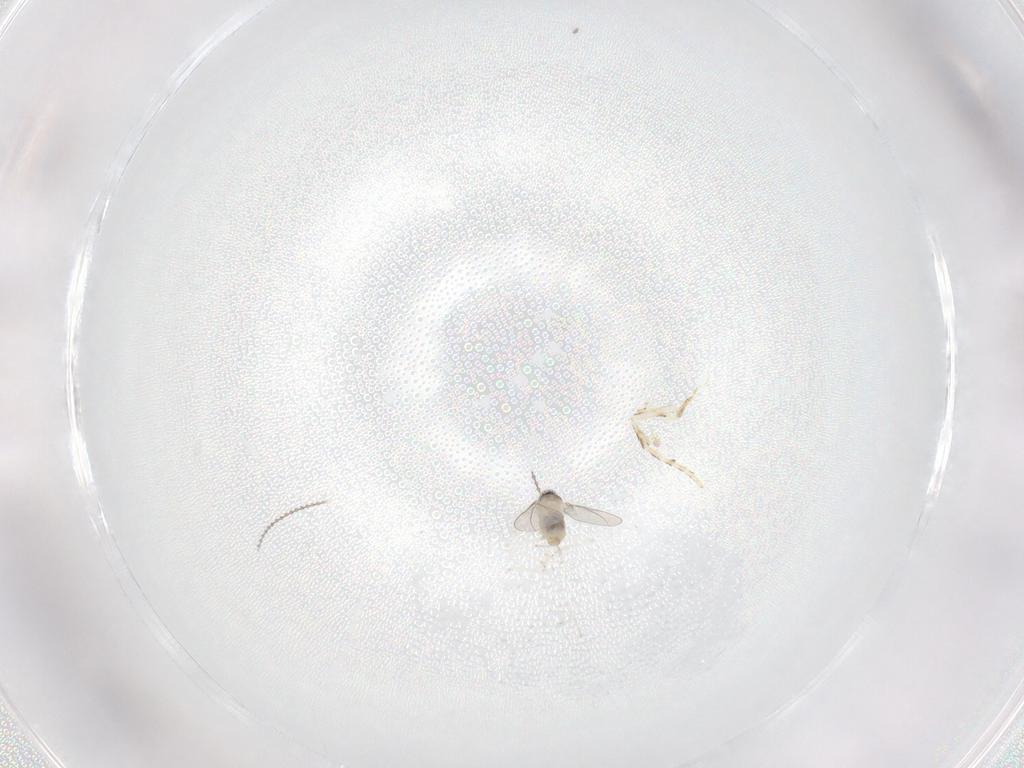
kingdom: Animalia
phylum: Arthropoda
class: Insecta
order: Diptera
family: Cecidomyiidae
